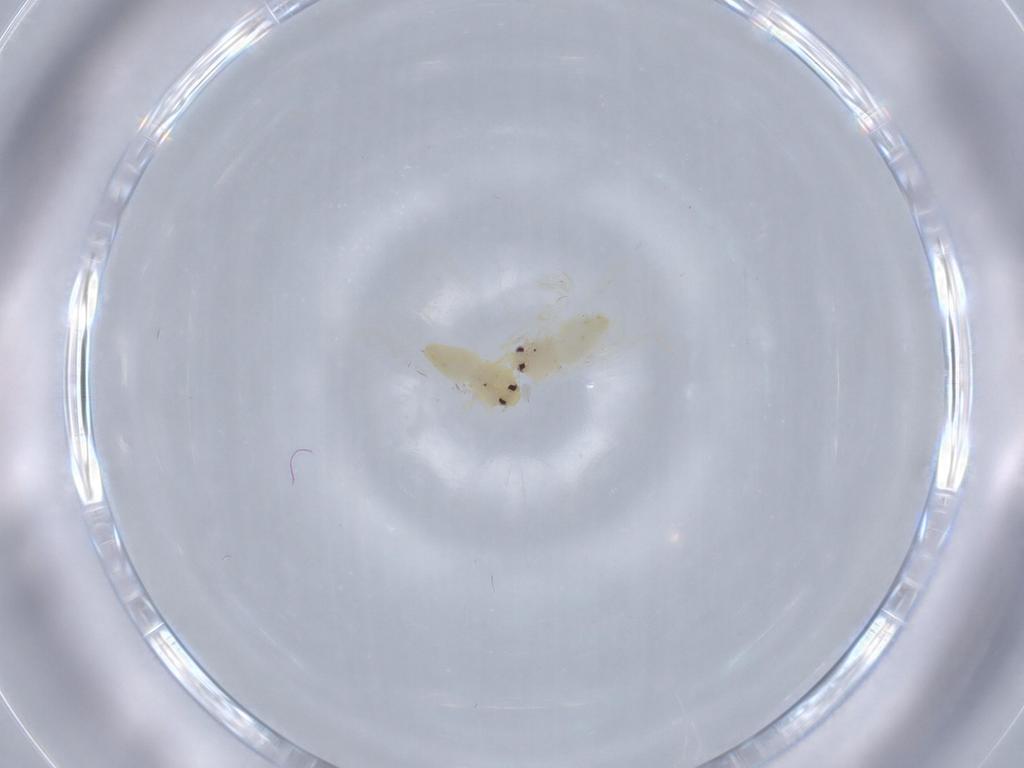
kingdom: Animalia
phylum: Arthropoda
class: Insecta
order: Hemiptera
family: Aleyrodidae
